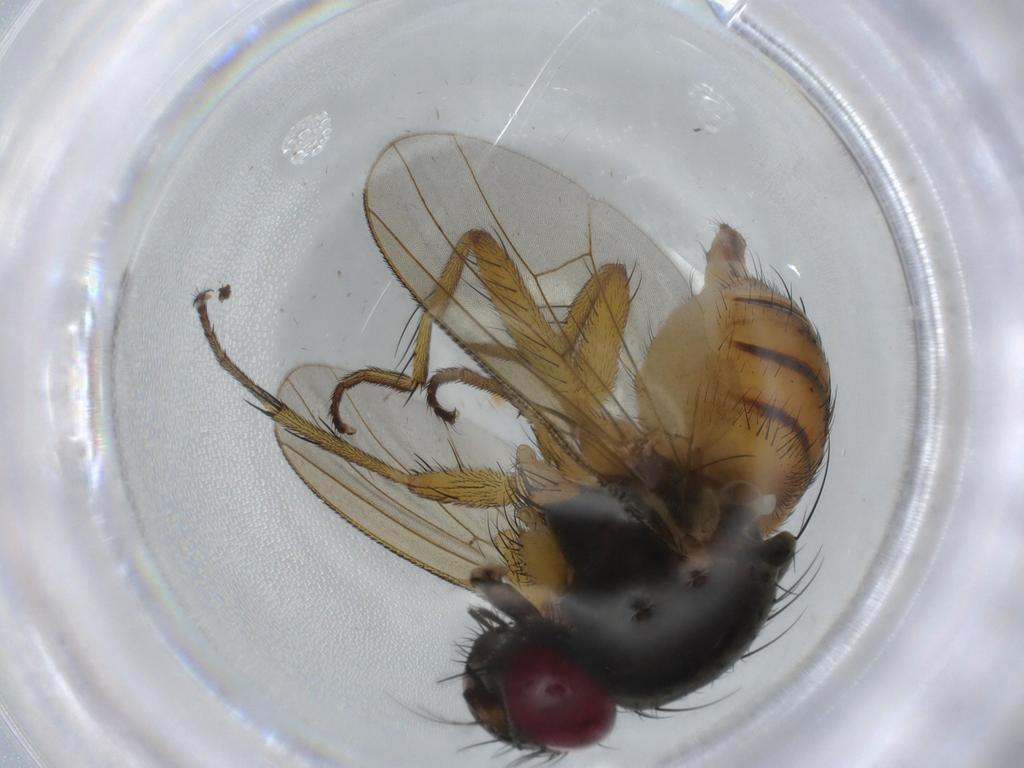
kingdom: Animalia
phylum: Arthropoda
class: Insecta
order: Diptera
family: Muscidae
